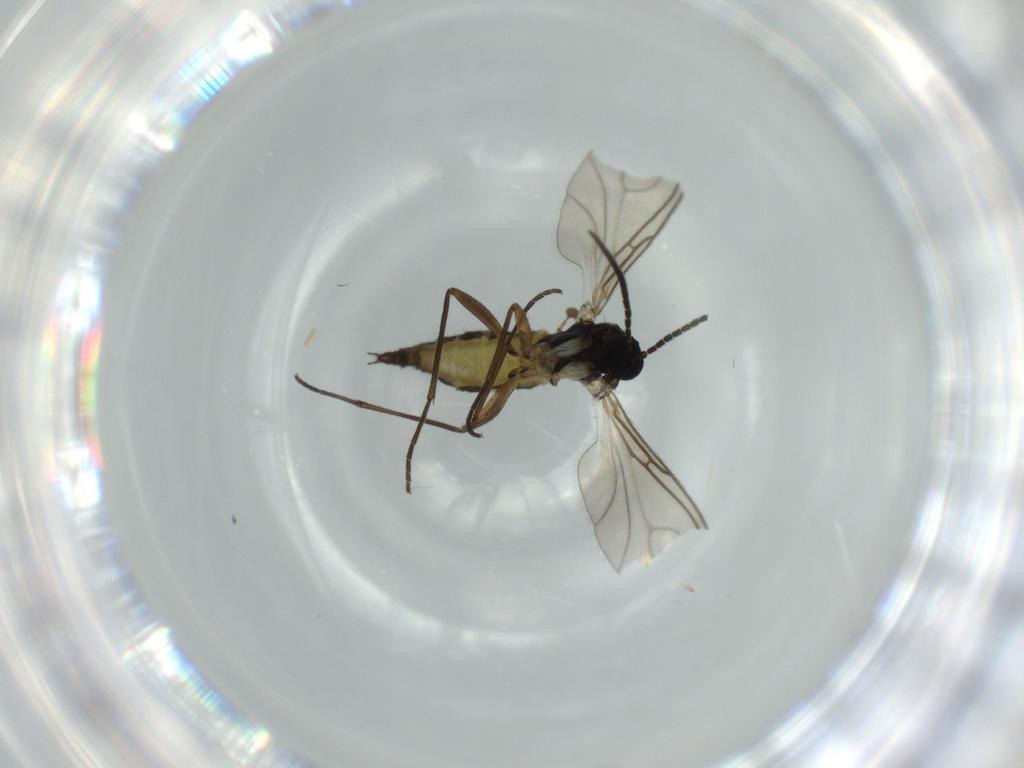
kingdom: Animalia
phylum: Arthropoda
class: Insecta
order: Diptera
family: Sciaridae
